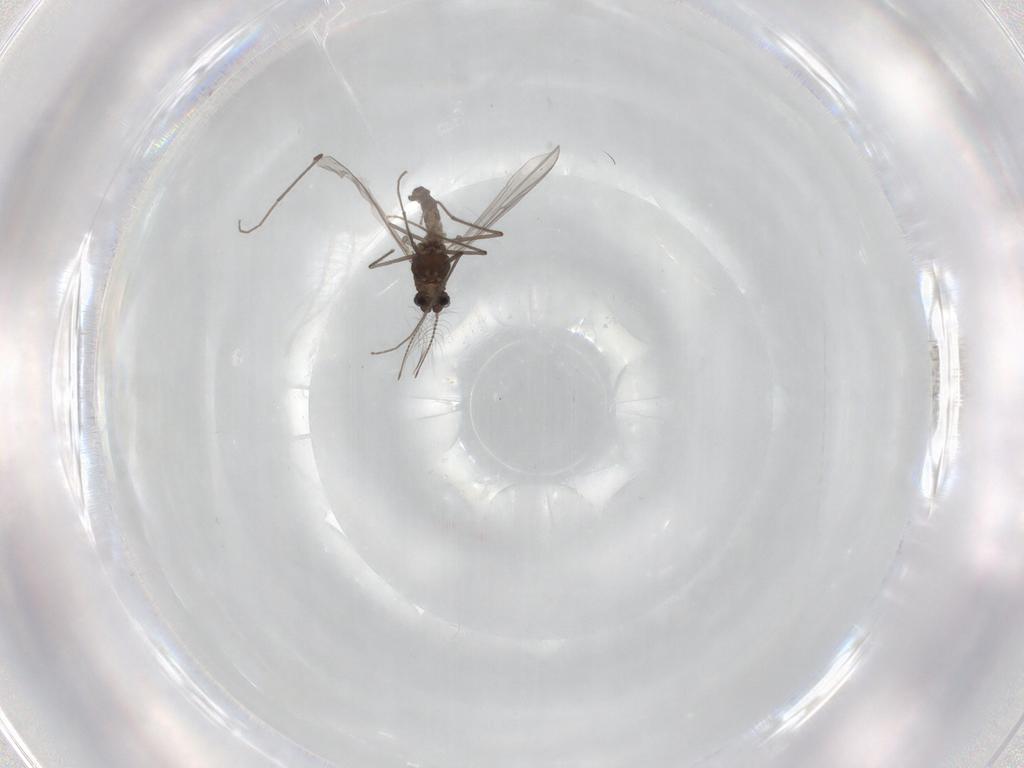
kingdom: Animalia
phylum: Arthropoda
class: Insecta
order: Diptera
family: Chironomidae
